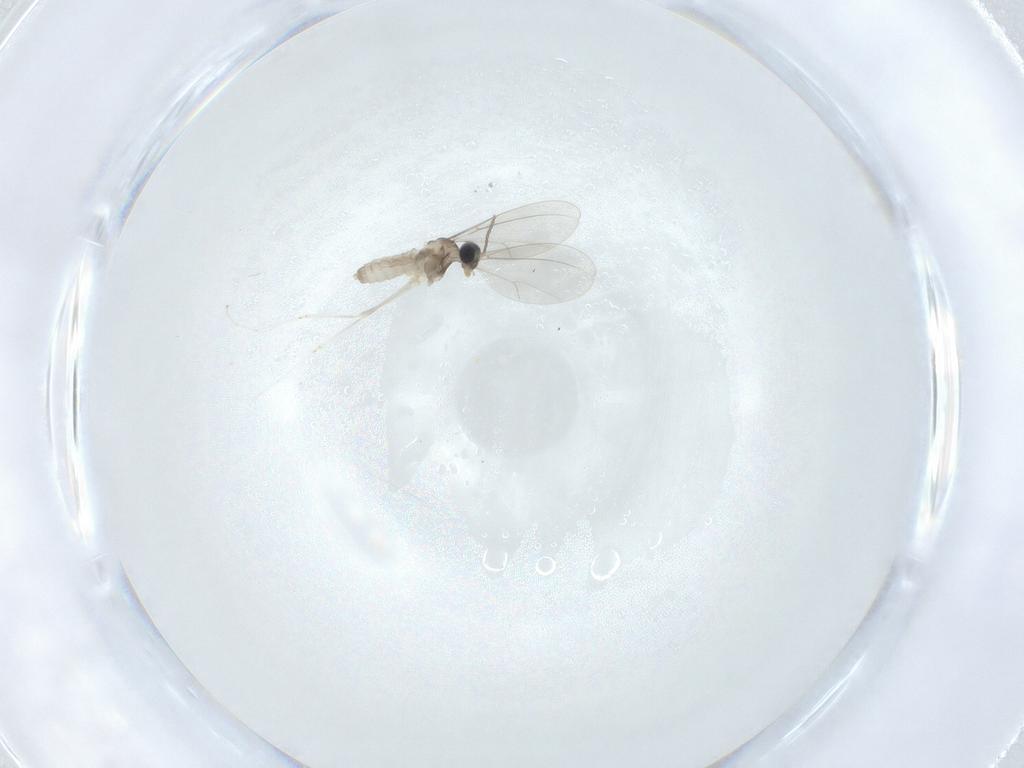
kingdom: Animalia
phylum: Arthropoda
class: Insecta
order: Diptera
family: Cecidomyiidae
